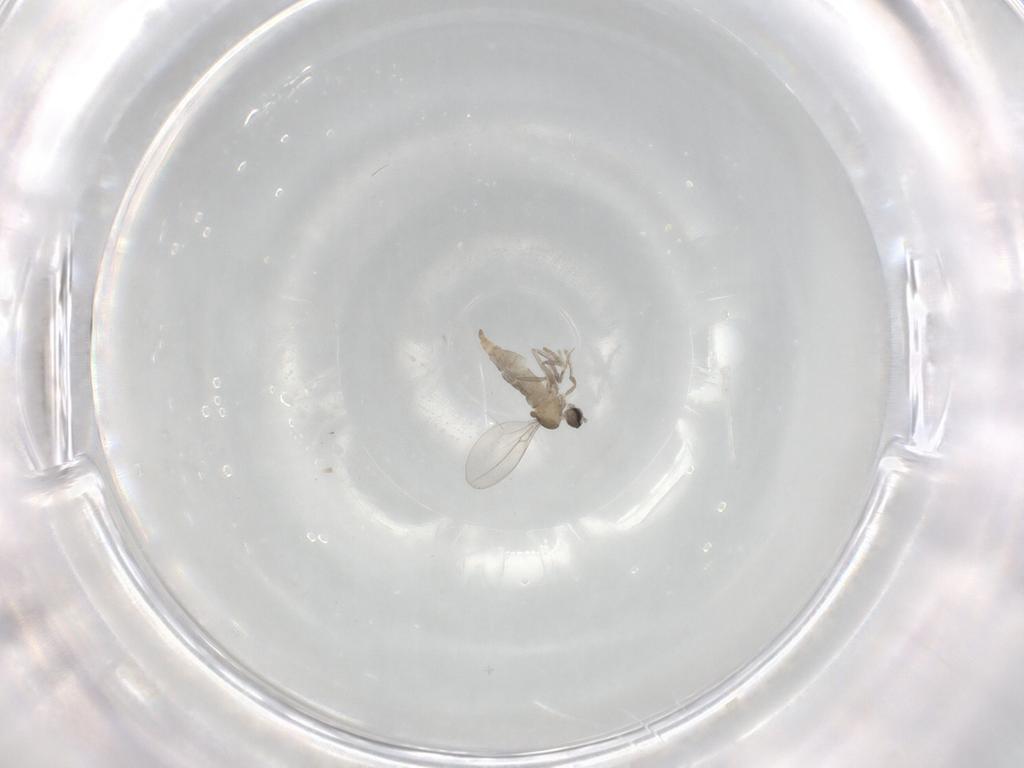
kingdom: Animalia
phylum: Arthropoda
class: Insecta
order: Diptera
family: Cecidomyiidae
